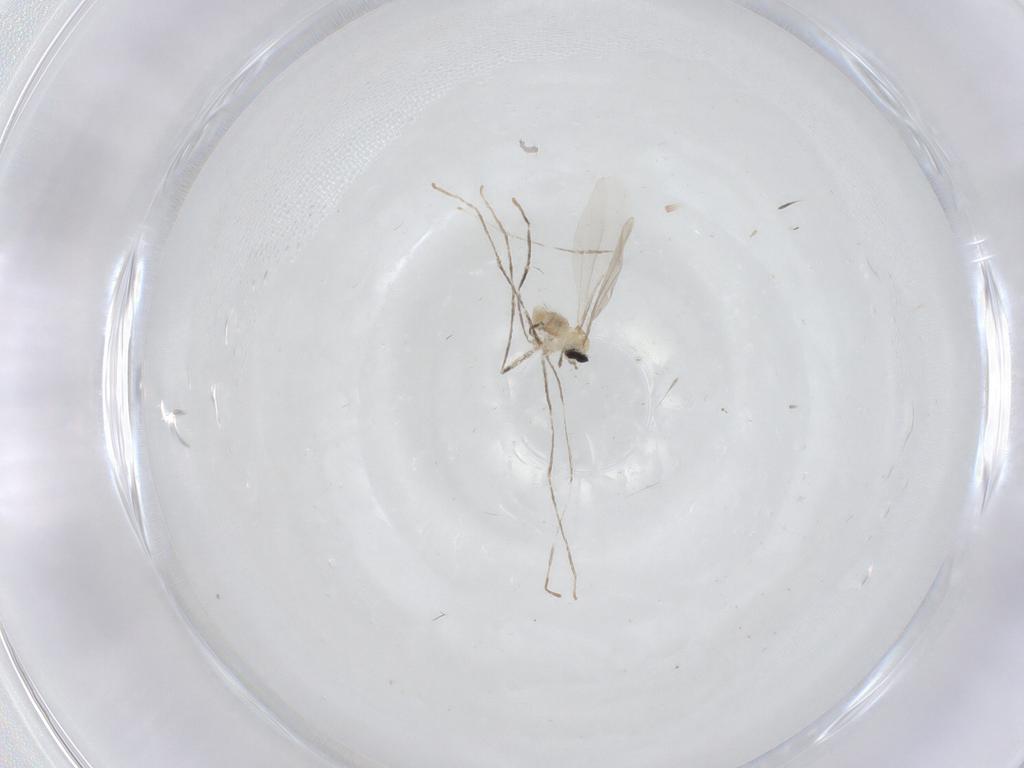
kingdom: Animalia
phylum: Arthropoda
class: Insecta
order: Diptera
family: Cecidomyiidae
